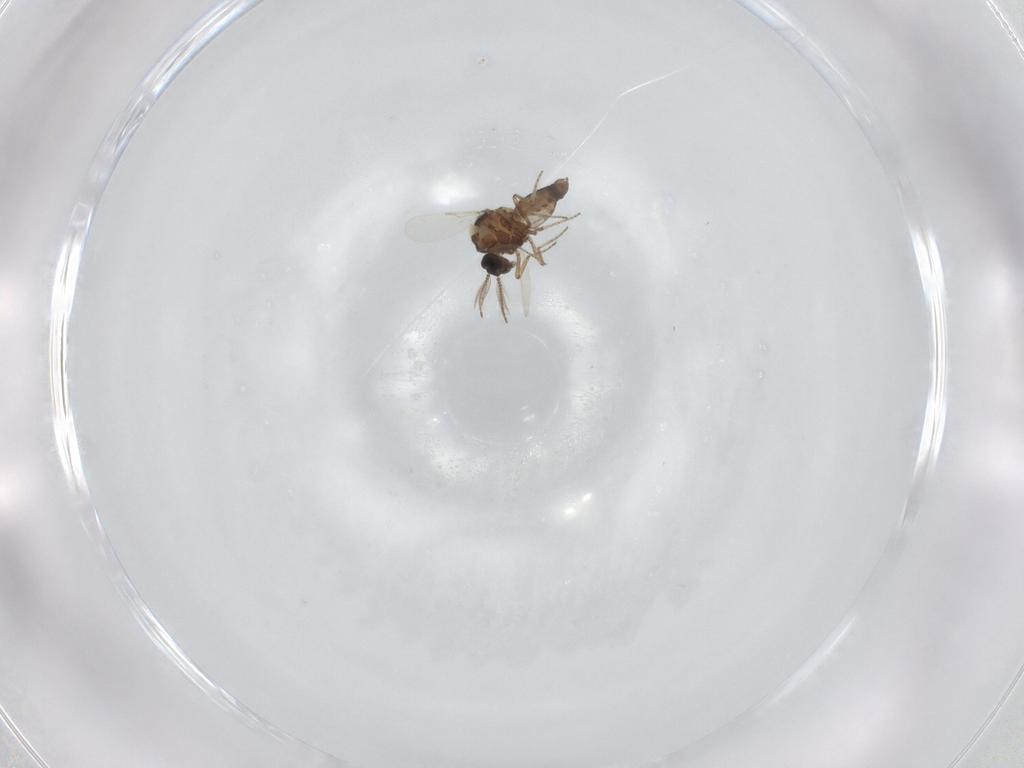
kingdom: Animalia
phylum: Arthropoda
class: Insecta
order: Diptera
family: Ceratopogonidae
